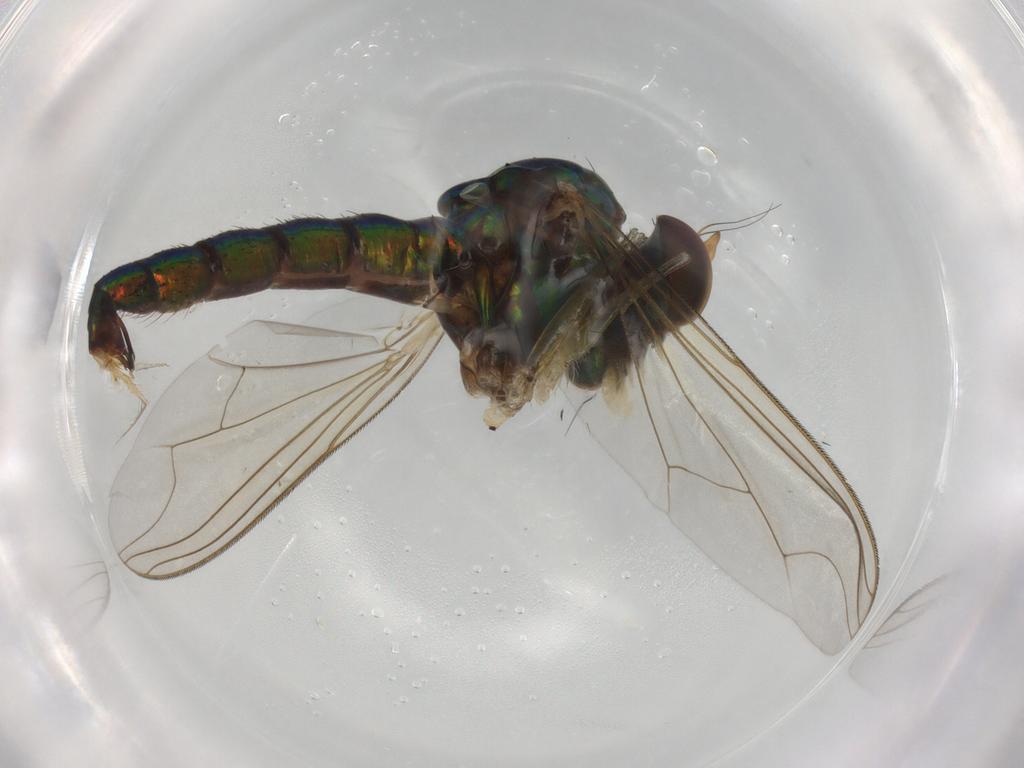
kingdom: Animalia
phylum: Arthropoda
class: Insecta
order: Diptera
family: Dolichopodidae
